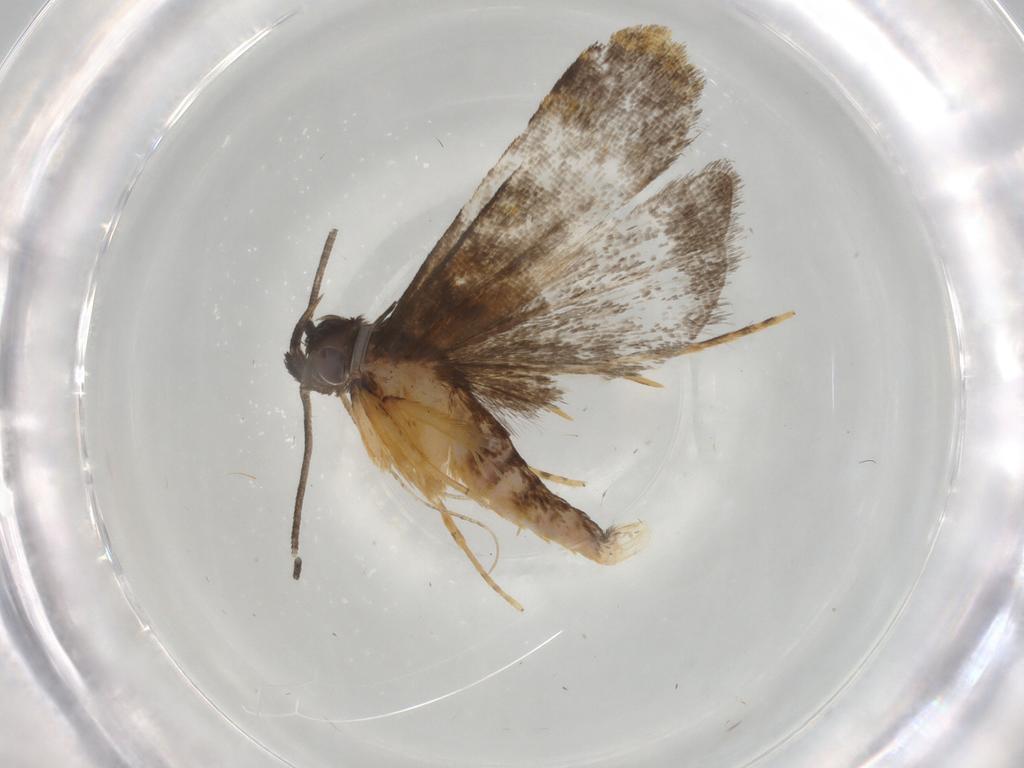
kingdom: Animalia
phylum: Arthropoda
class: Insecta
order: Lepidoptera
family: Cosmopterigidae
